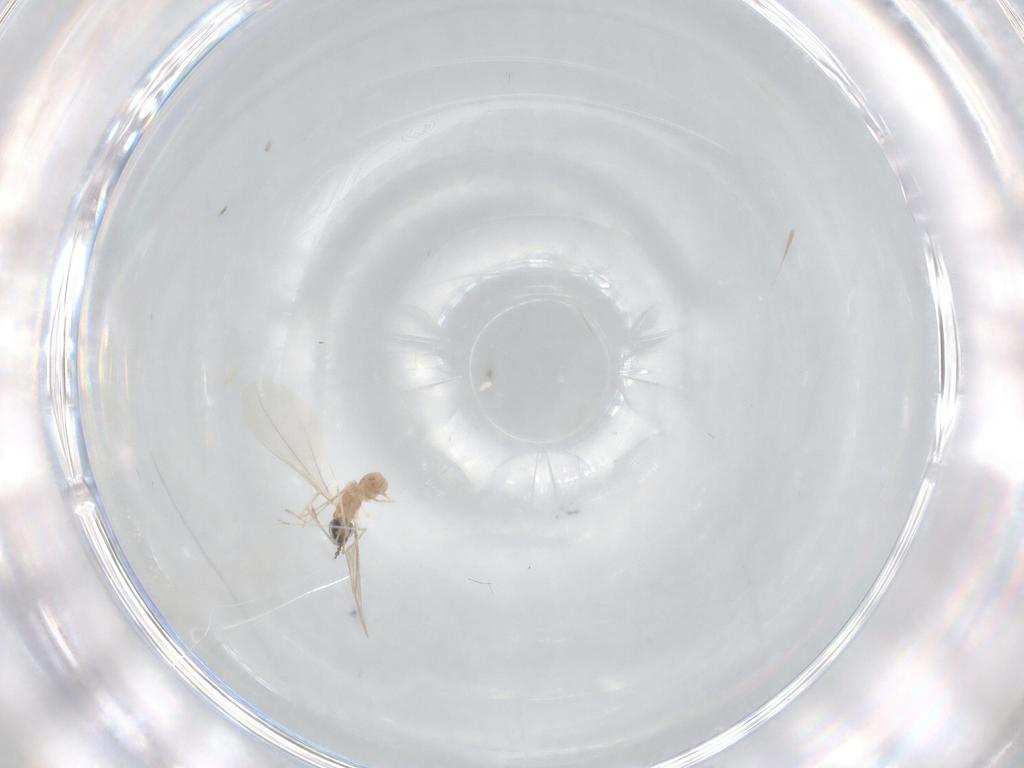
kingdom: Animalia
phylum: Arthropoda
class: Insecta
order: Diptera
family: Cecidomyiidae
